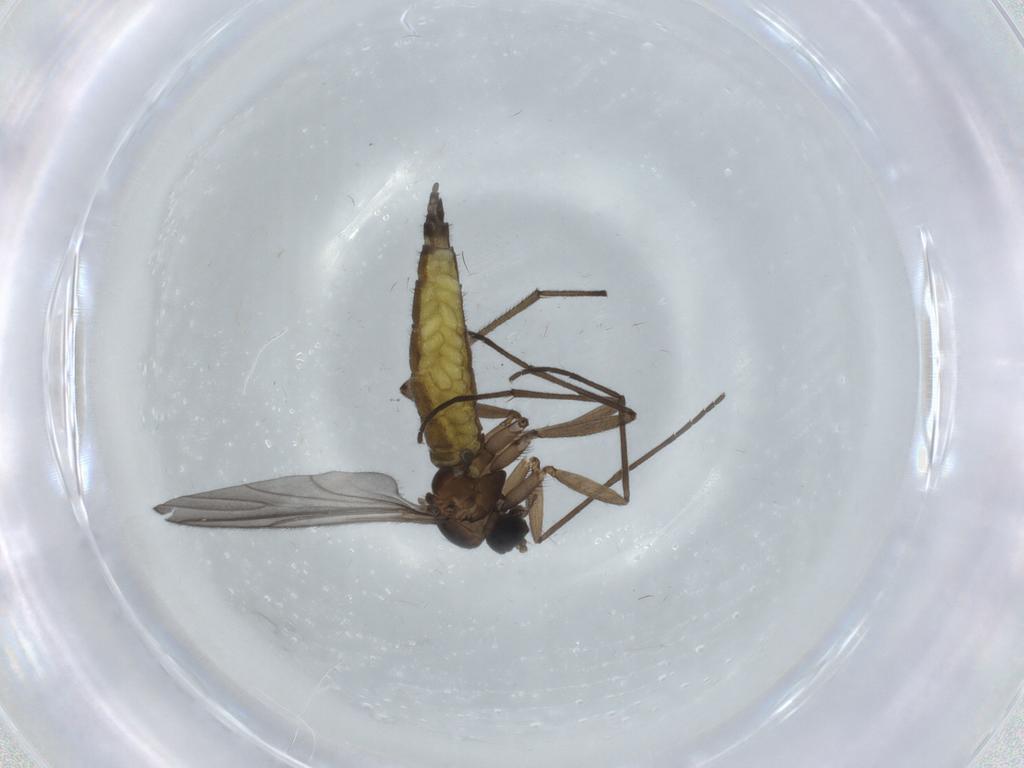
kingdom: Animalia
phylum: Arthropoda
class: Insecta
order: Diptera
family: Sciaridae
